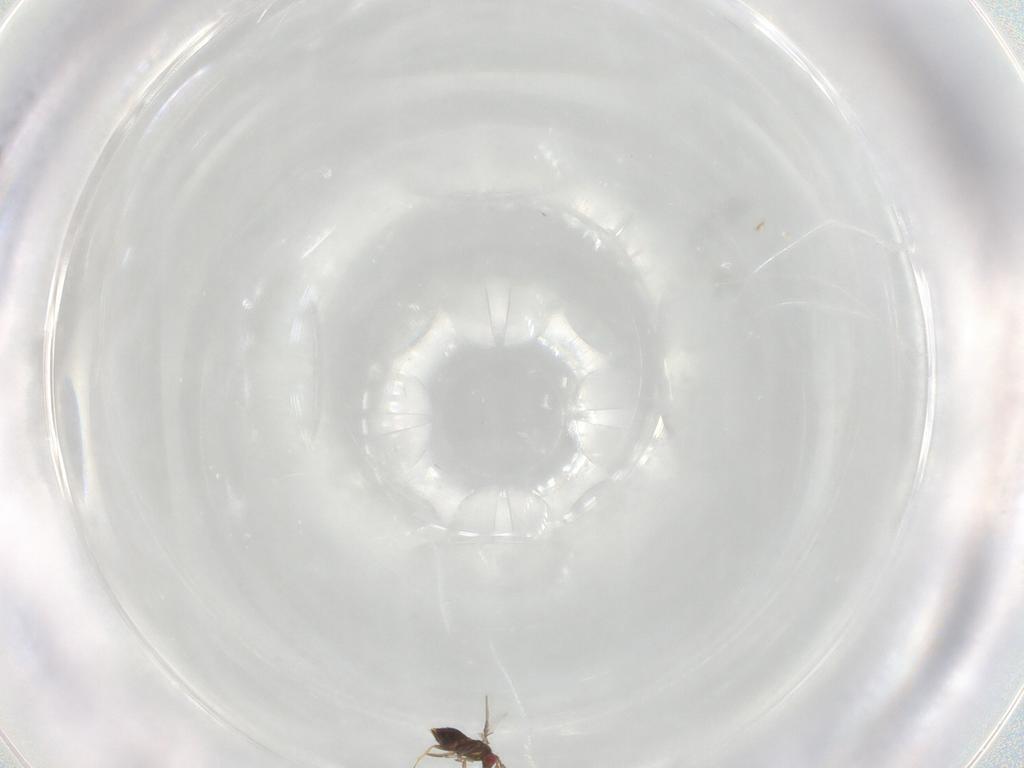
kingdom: Animalia
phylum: Arthropoda
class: Insecta
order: Hymenoptera
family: Trichogrammatidae
